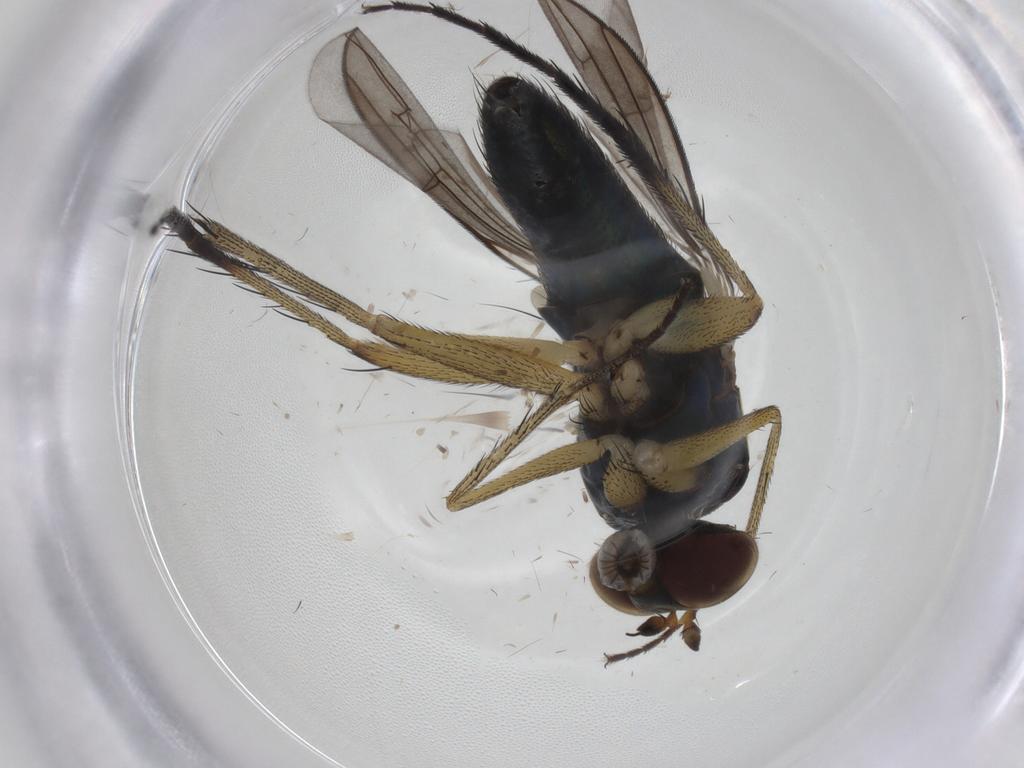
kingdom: Animalia
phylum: Arthropoda
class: Insecta
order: Diptera
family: Dolichopodidae
